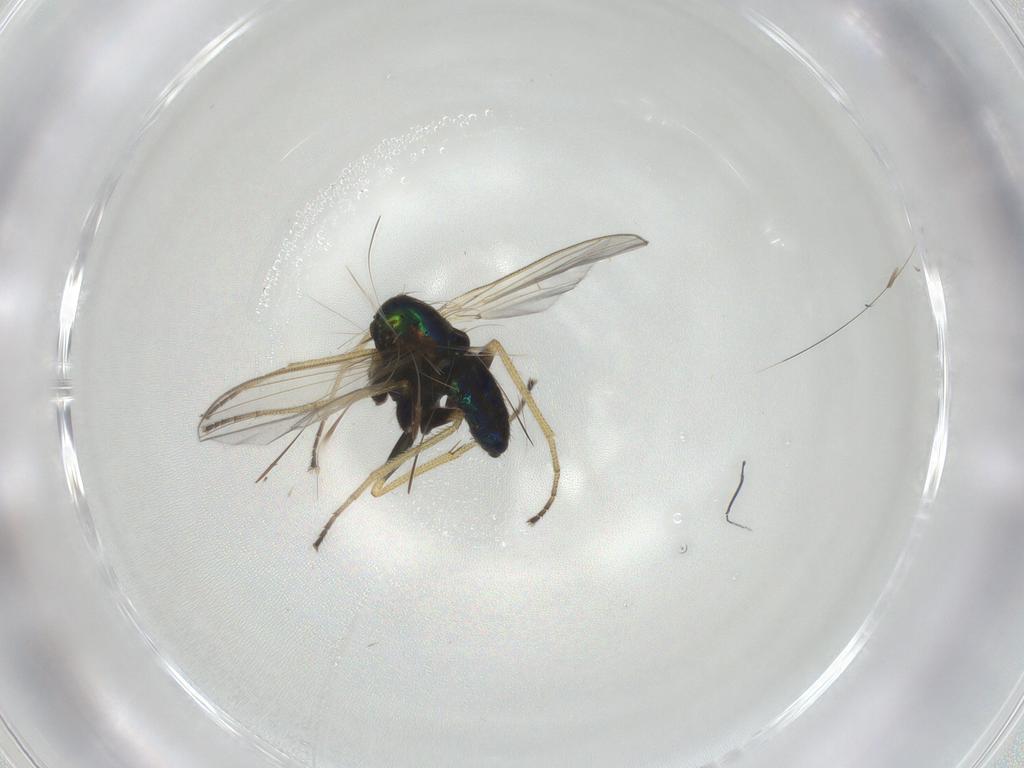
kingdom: Animalia
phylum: Arthropoda
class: Insecta
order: Diptera
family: Dolichopodidae
